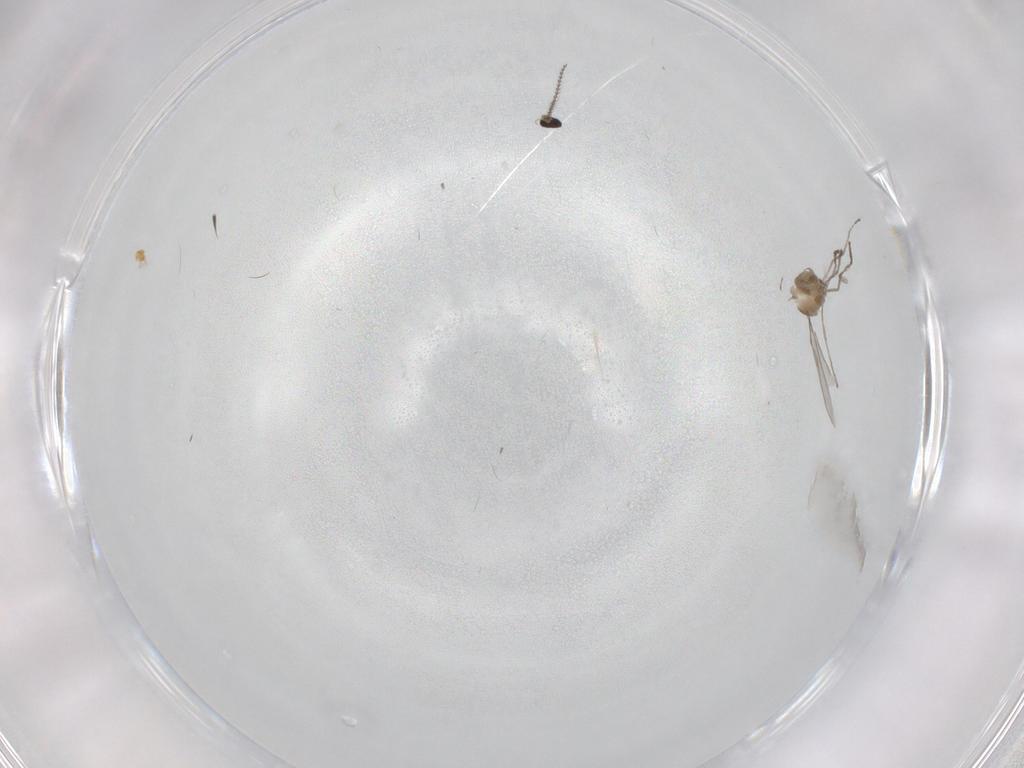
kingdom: Animalia
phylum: Arthropoda
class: Insecta
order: Diptera
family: Cecidomyiidae
